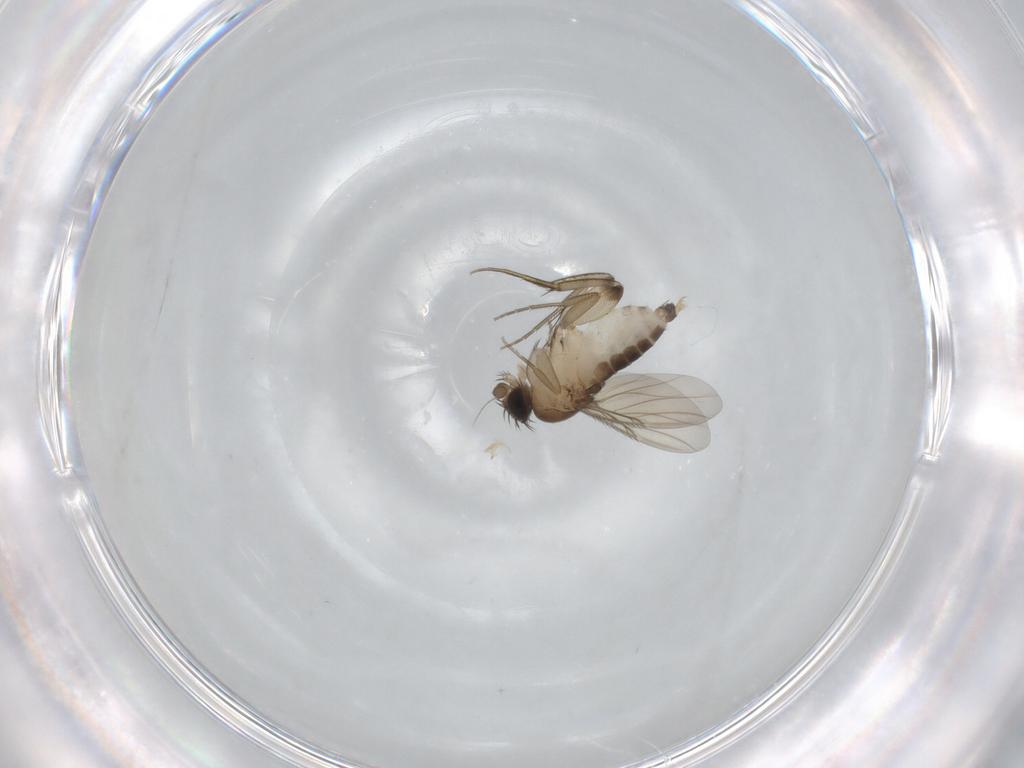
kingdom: Animalia
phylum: Arthropoda
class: Insecta
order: Diptera
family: Phoridae
